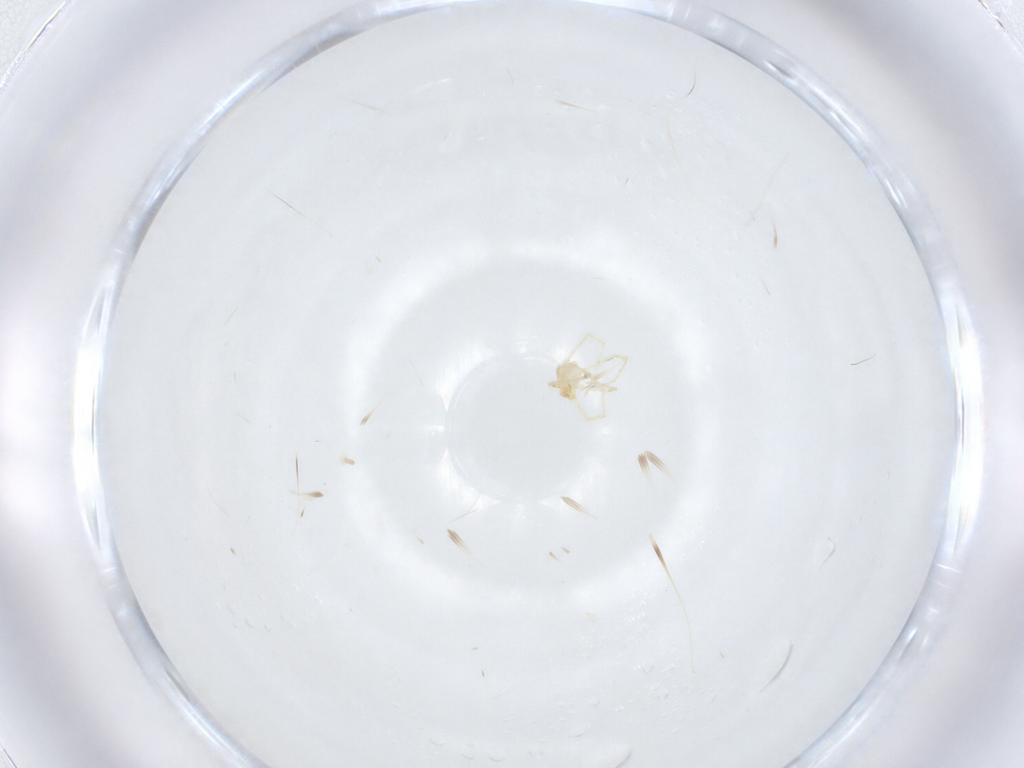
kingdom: Animalia
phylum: Arthropoda
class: Arachnida
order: Trombidiformes
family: Erythraeidae
